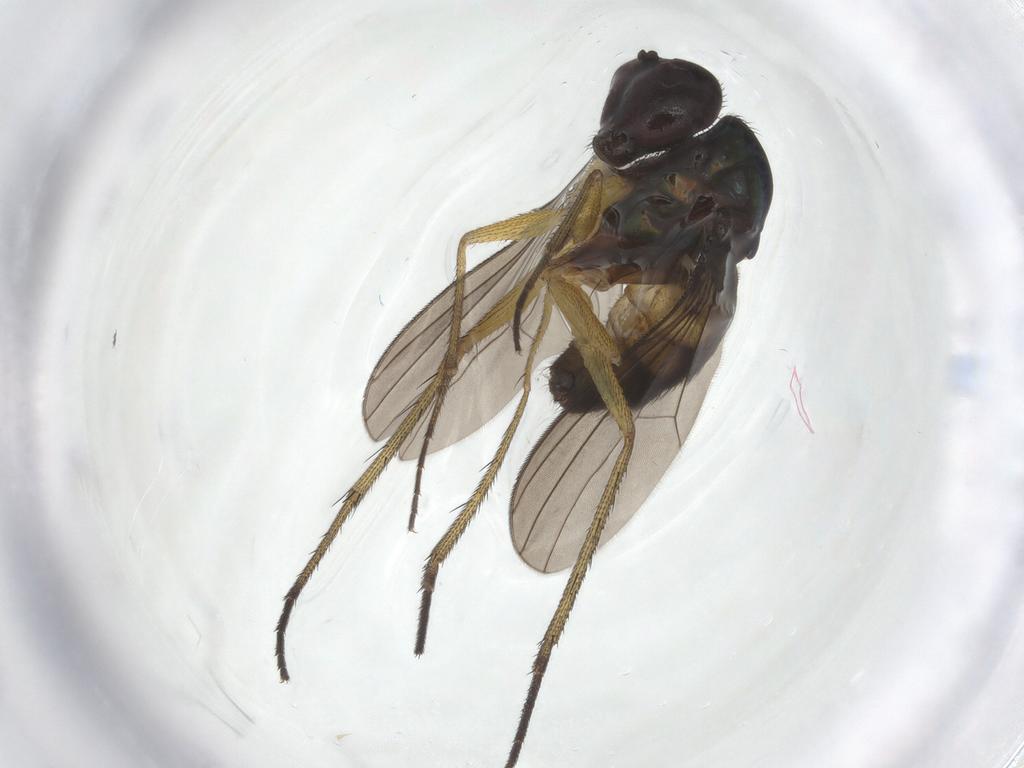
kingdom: Animalia
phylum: Arthropoda
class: Insecta
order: Diptera
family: Dolichopodidae
